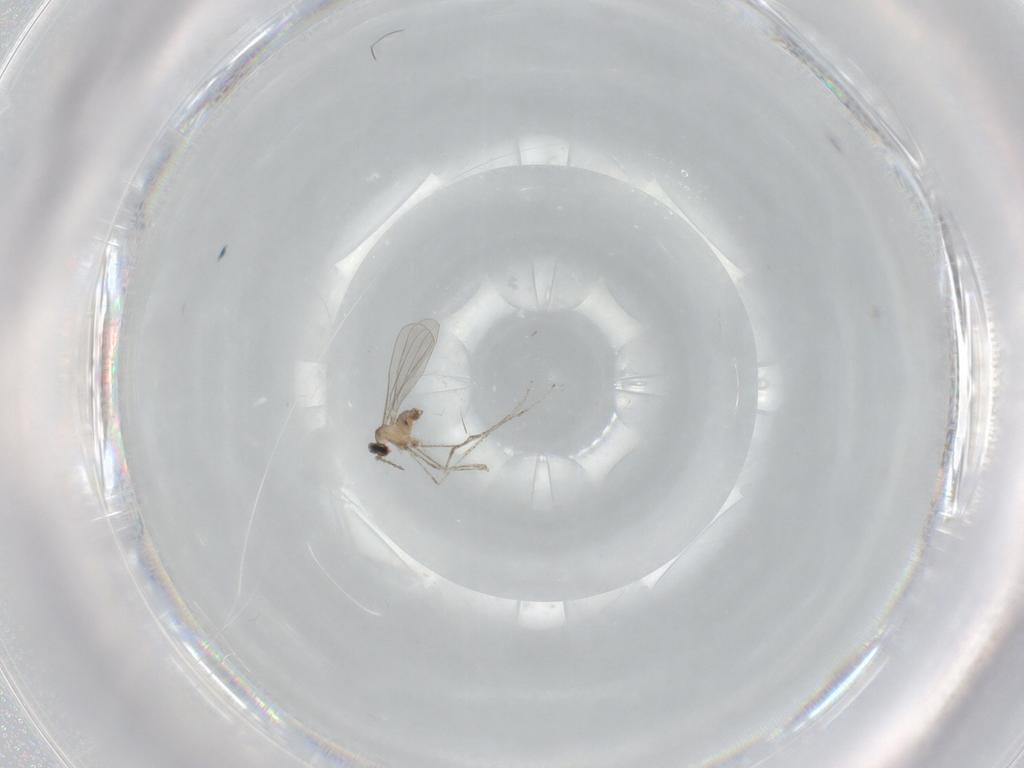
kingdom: Animalia
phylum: Arthropoda
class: Insecta
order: Diptera
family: Cecidomyiidae
